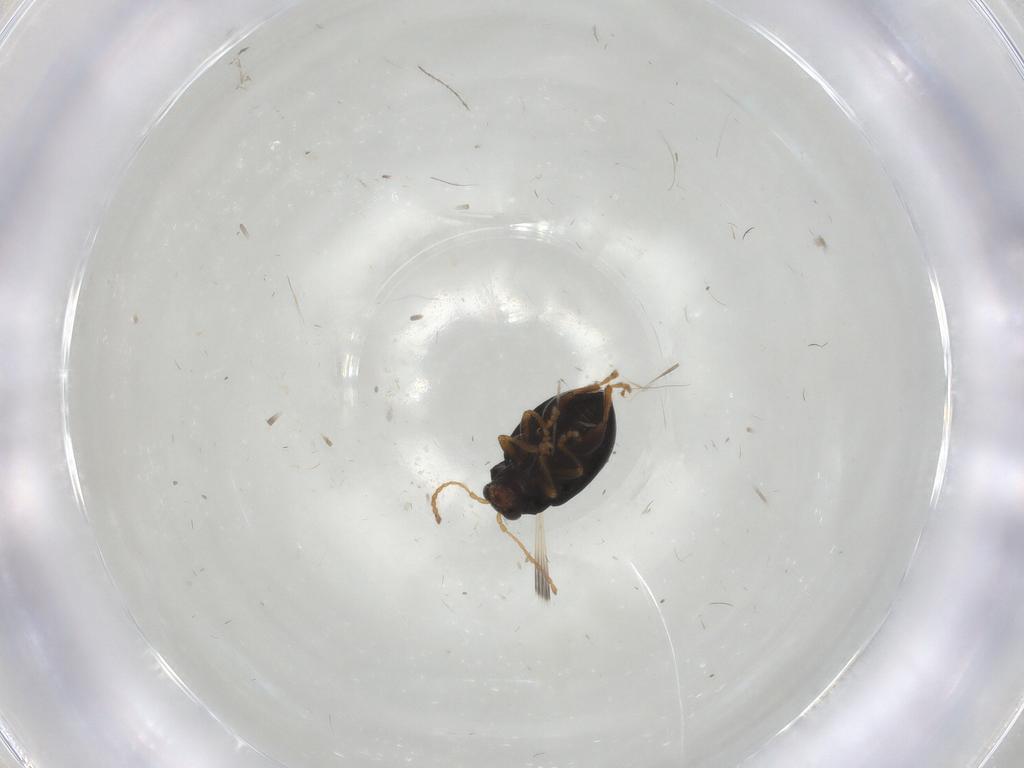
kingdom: Animalia
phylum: Arthropoda
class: Insecta
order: Coleoptera
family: Chrysomelidae
